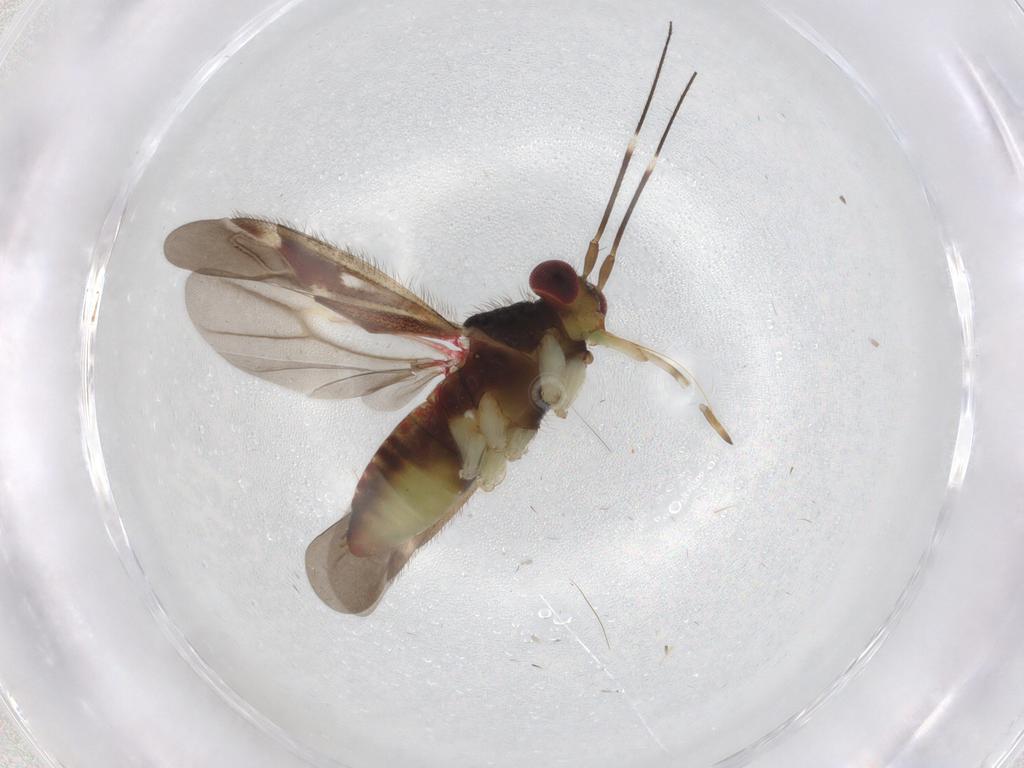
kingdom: Animalia
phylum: Arthropoda
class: Insecta
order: Hemiptera
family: Miridae
